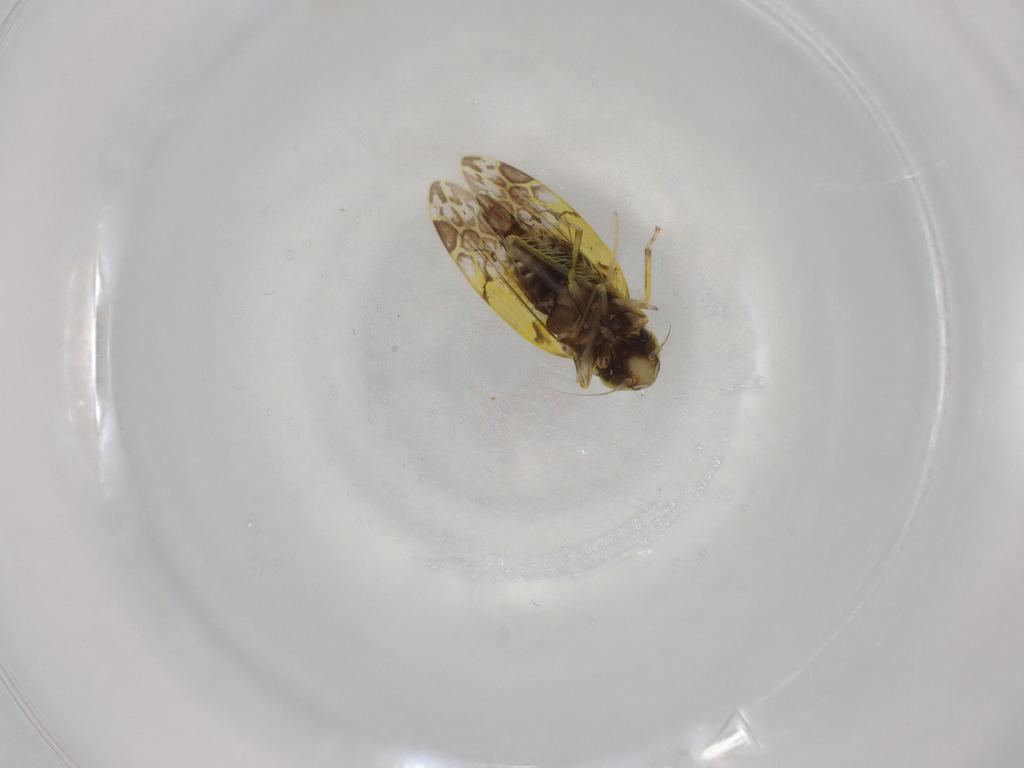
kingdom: Animalia
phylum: Arthropoda
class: Insecta
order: Hemiptera
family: Cicadellidae
